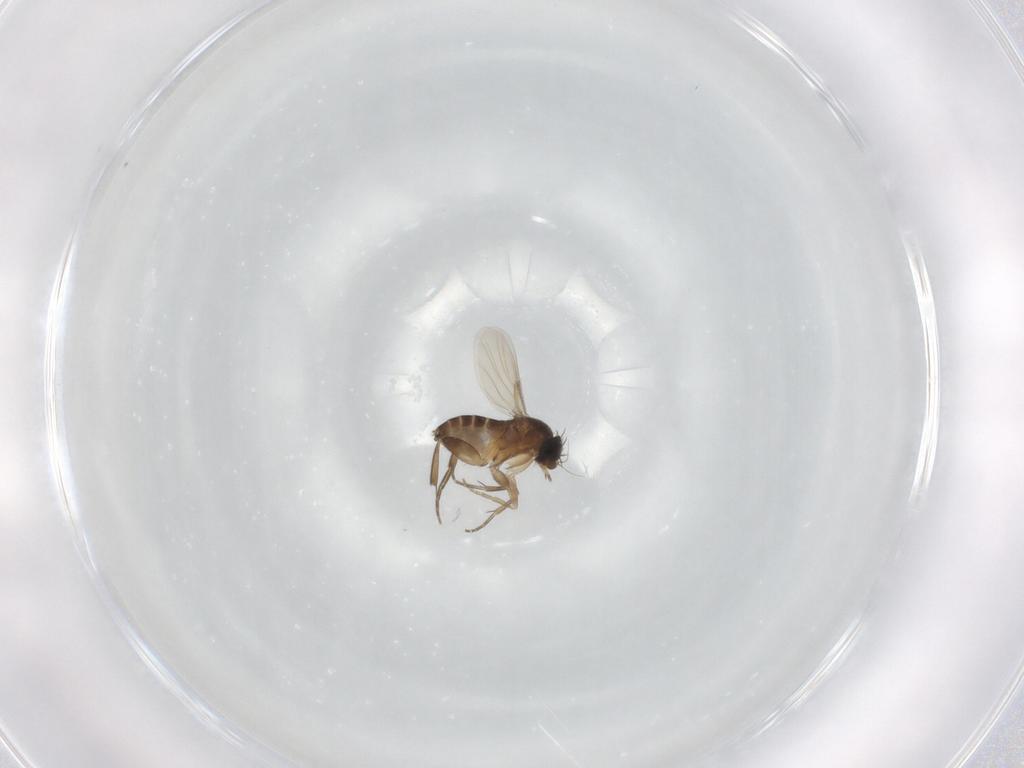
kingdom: Animalia
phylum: Arthropoda
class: Insecta
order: Diptera
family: Phoridae
